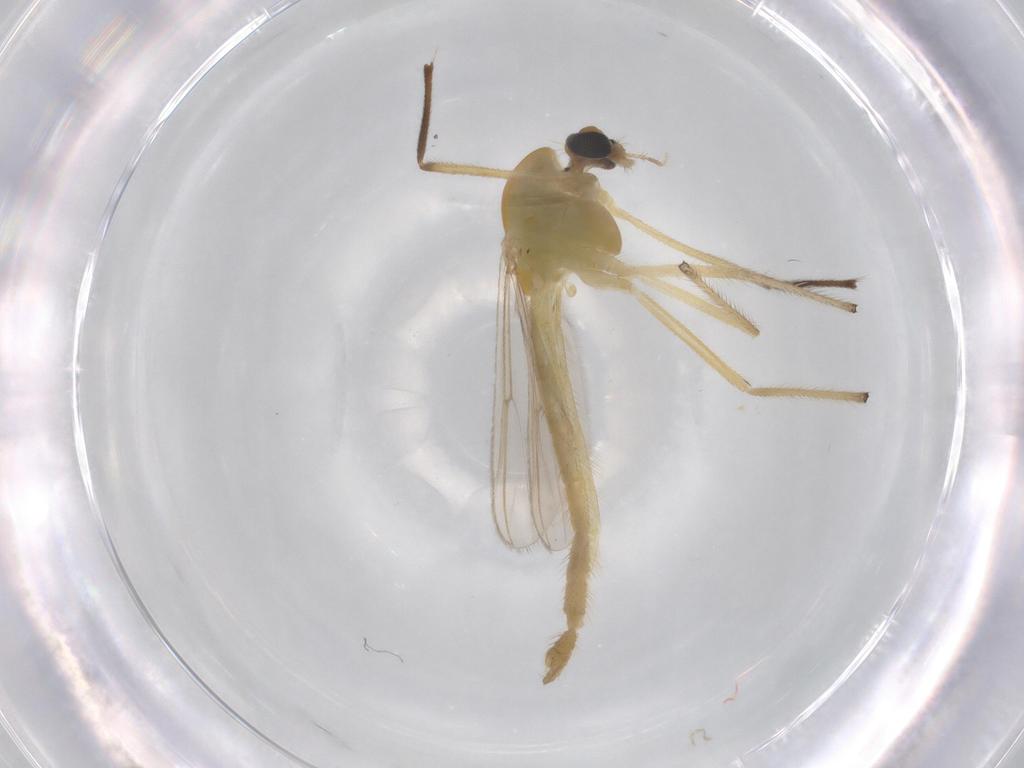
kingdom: Animalia
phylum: Arthropoda
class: Insecta
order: Diptera
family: Chironomidae
